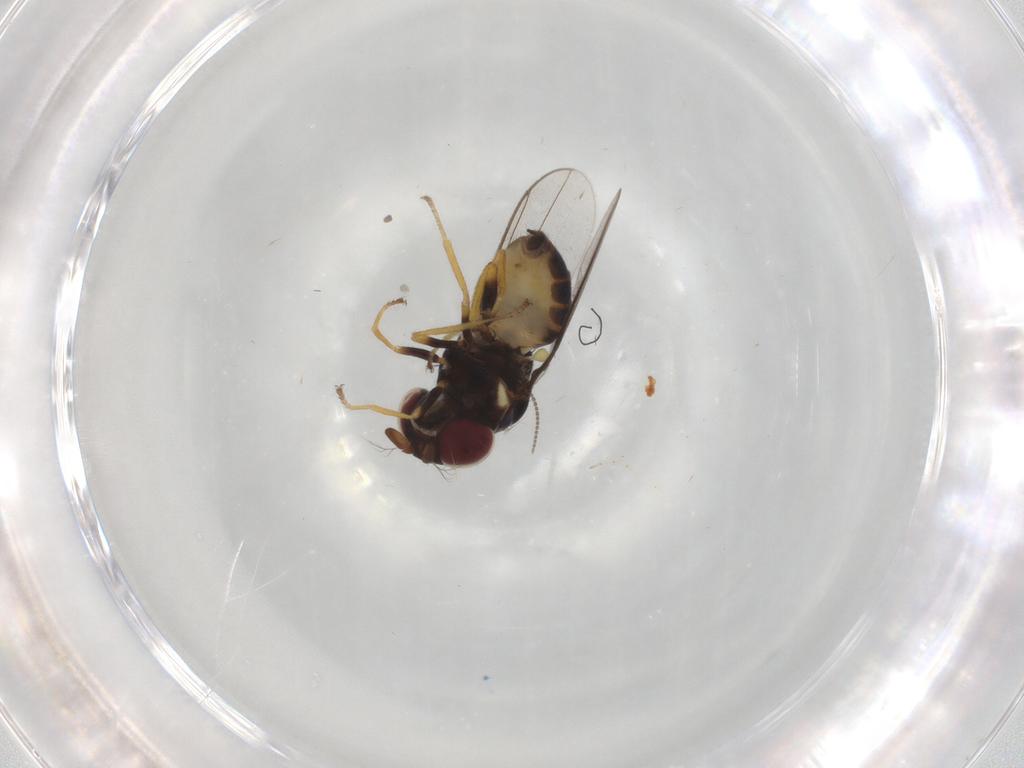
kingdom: Animalia
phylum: Arthropoda
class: Insecta
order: Diptera
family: Chloropidae
